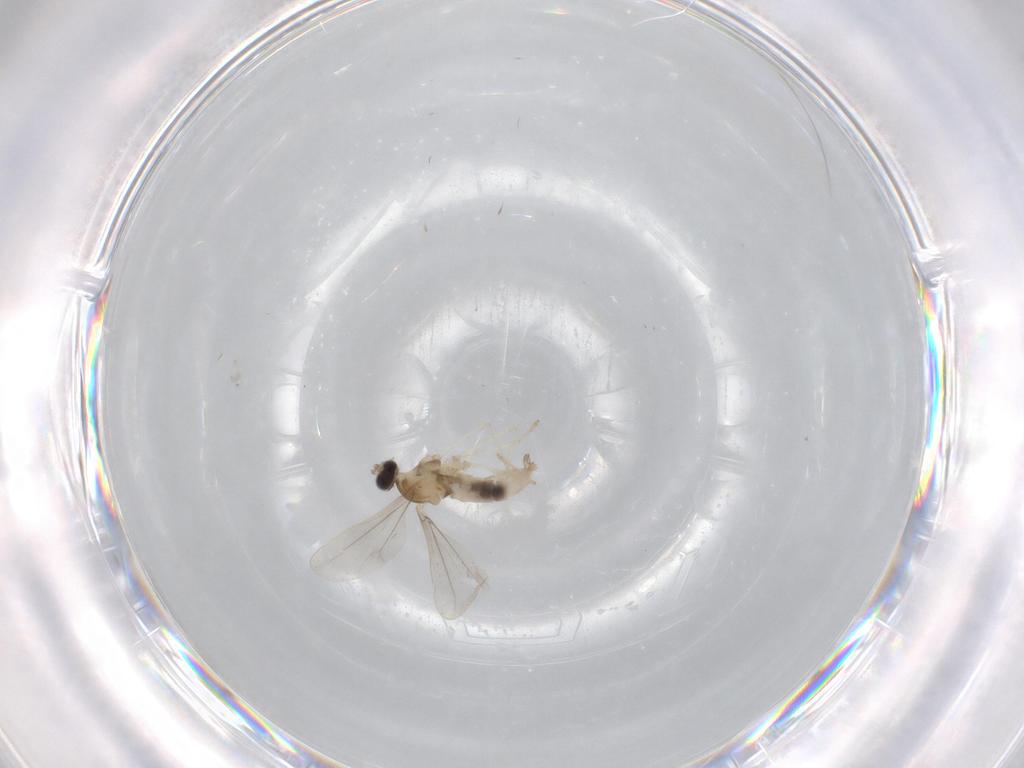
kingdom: Animalia
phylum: Arthropoda
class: Insecta
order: Diptera
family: Cecidomyiidae
